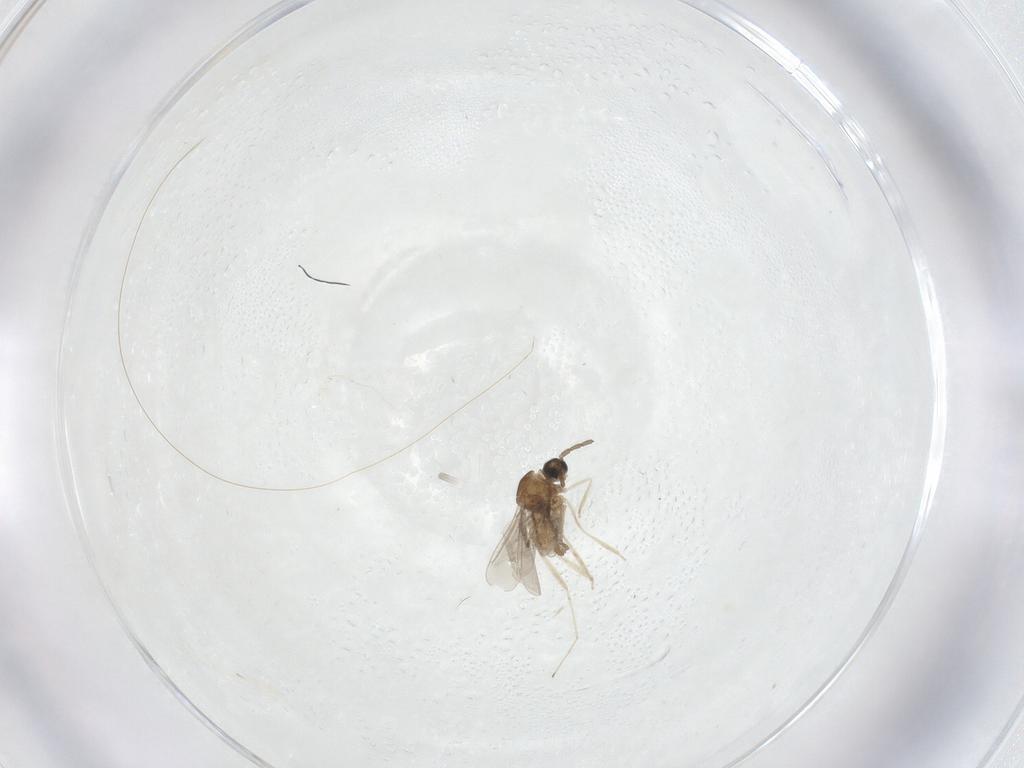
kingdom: Animalia
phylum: Arthropoda
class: Insecta
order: Diptera
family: Cecidomyiidae
